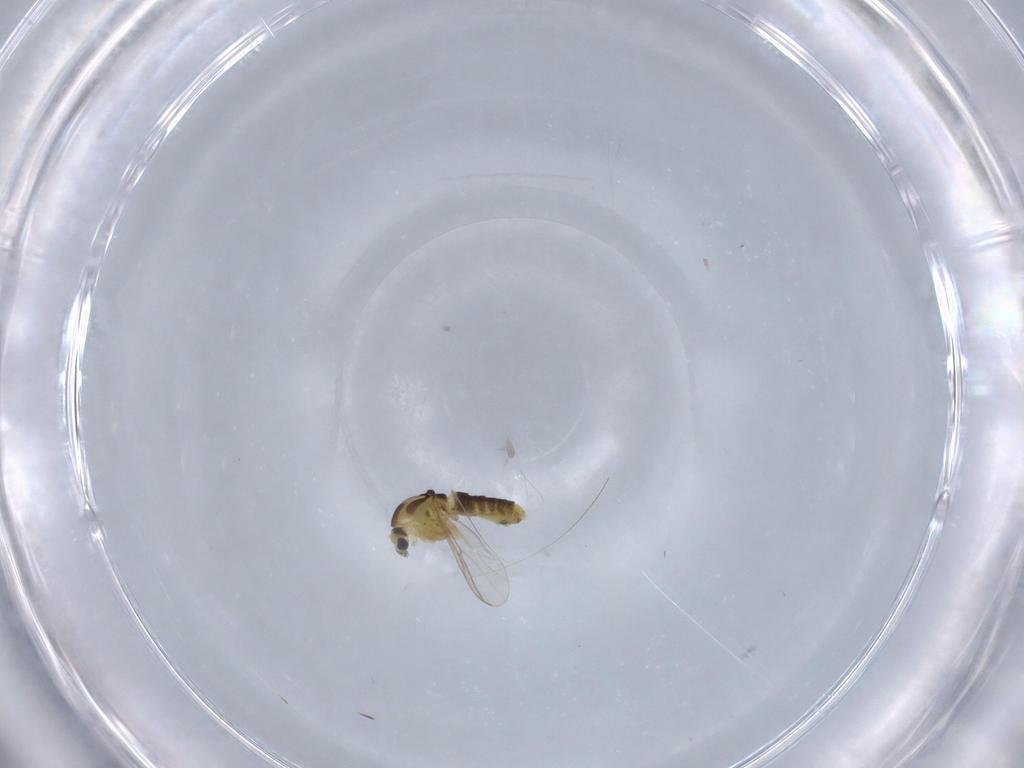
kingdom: Animalia
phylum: Arthropoda
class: Insecta
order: Diptera
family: Chironomidae
